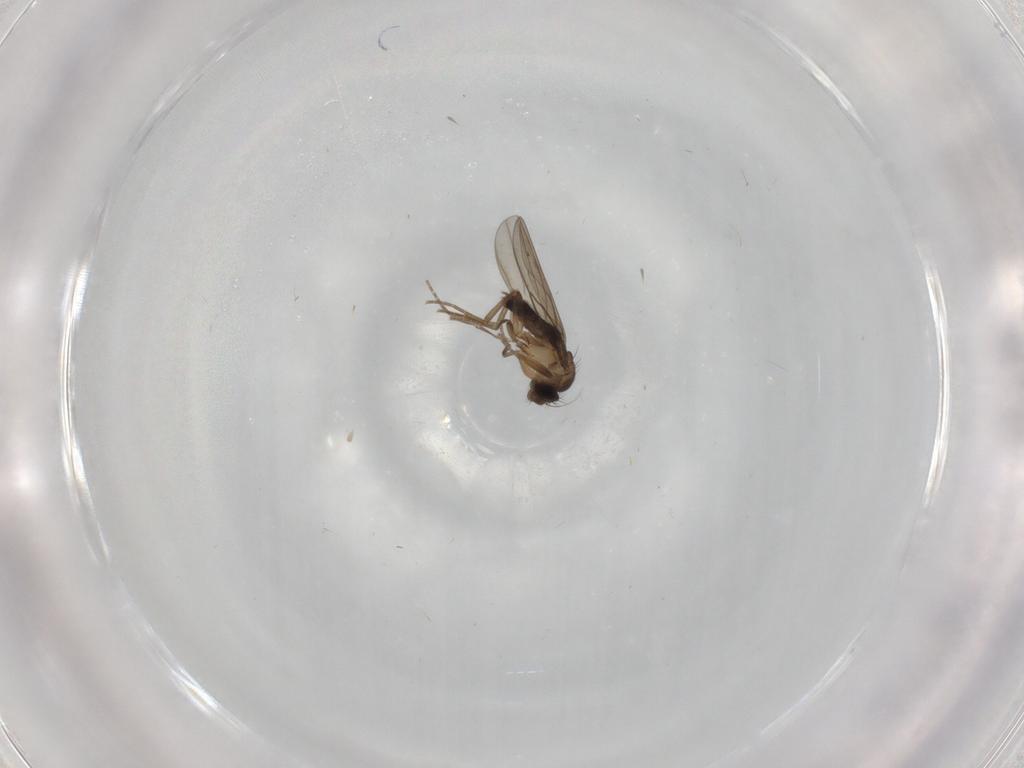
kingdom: Animalia
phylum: Arthropoda
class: Insecta
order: Diptera
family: Phoridae
